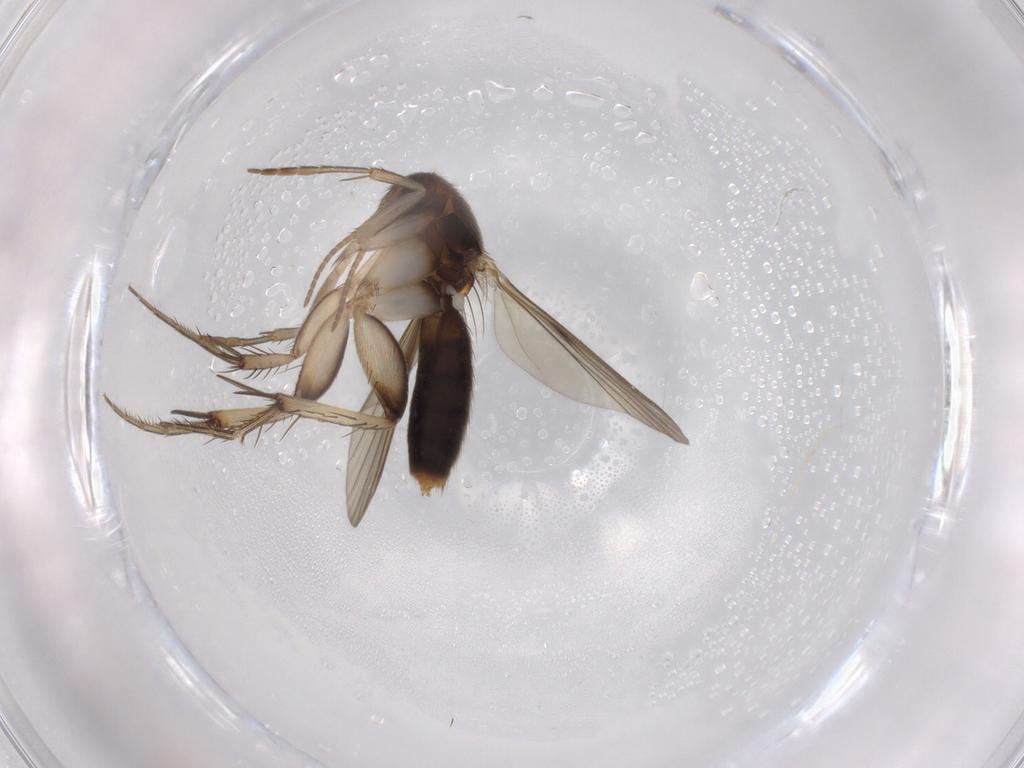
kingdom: Animalia
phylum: Arthropoda
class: Insecta
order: Diptera
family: Mycetophilidae
